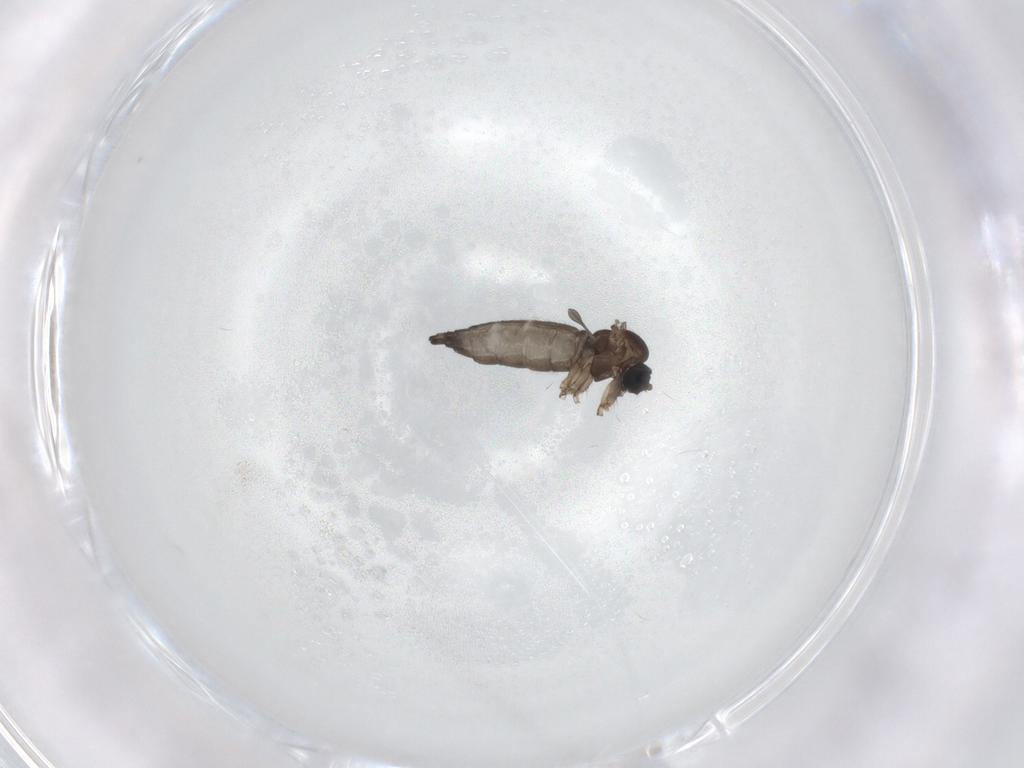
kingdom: Animalia
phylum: Arthropoda
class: Insecta
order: Diptera
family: Sciaridae
